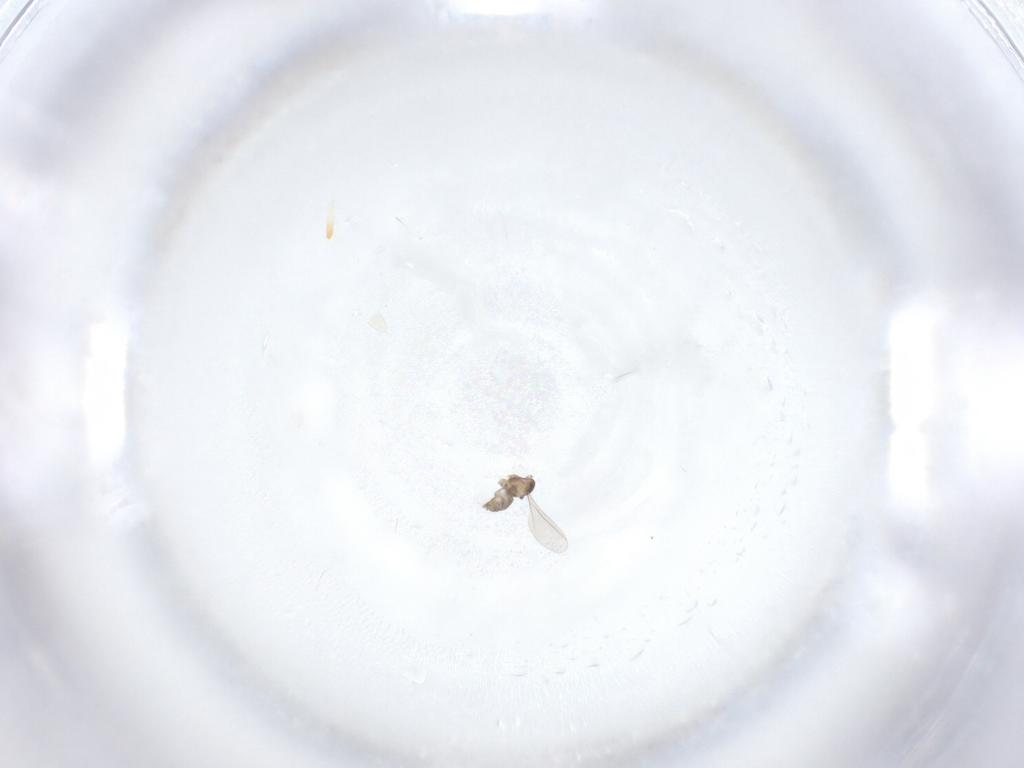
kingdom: Animalia
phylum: Arthropoda
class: Insecta
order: Diptera
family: Cecidomyiidae
